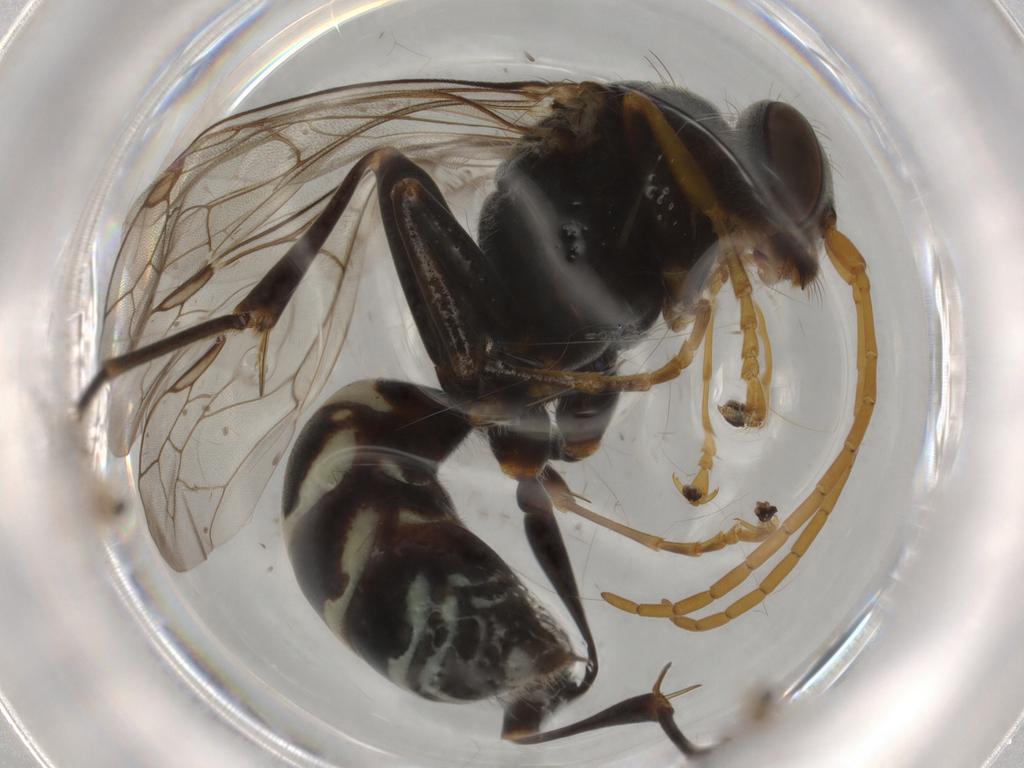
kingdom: Animalia
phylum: Arthropoda
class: Insecta
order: Hymenoptera
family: Pompilidae
